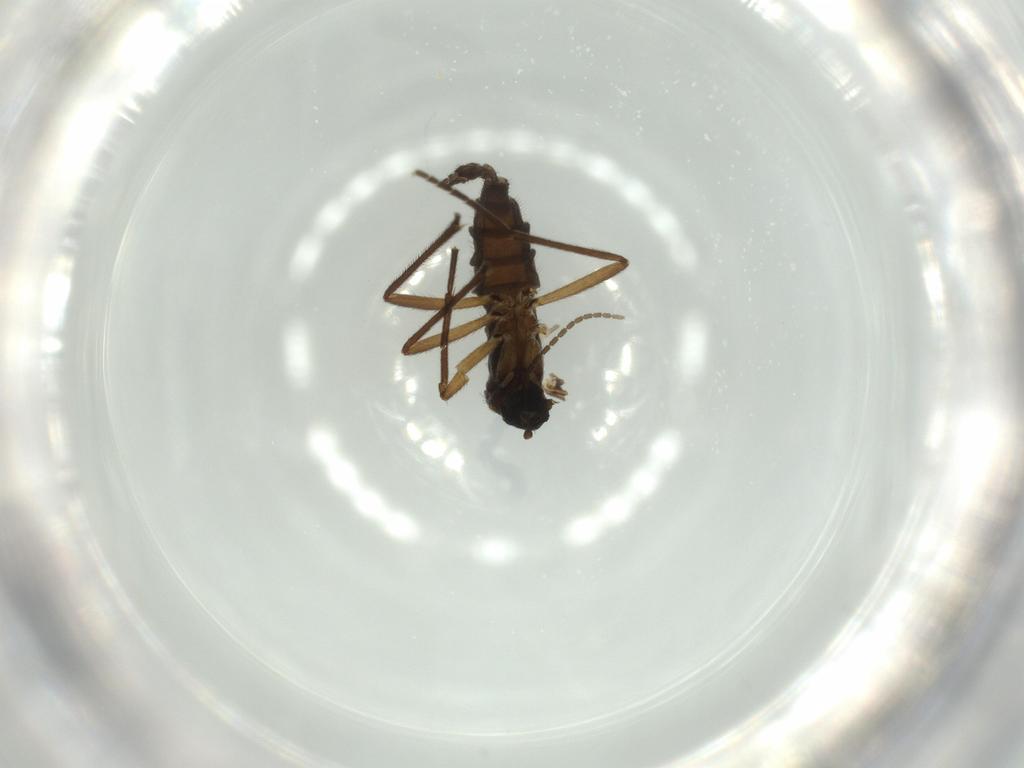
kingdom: Animalia
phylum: Arthropoda
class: Insecta
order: Diptera
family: Sciaridae
